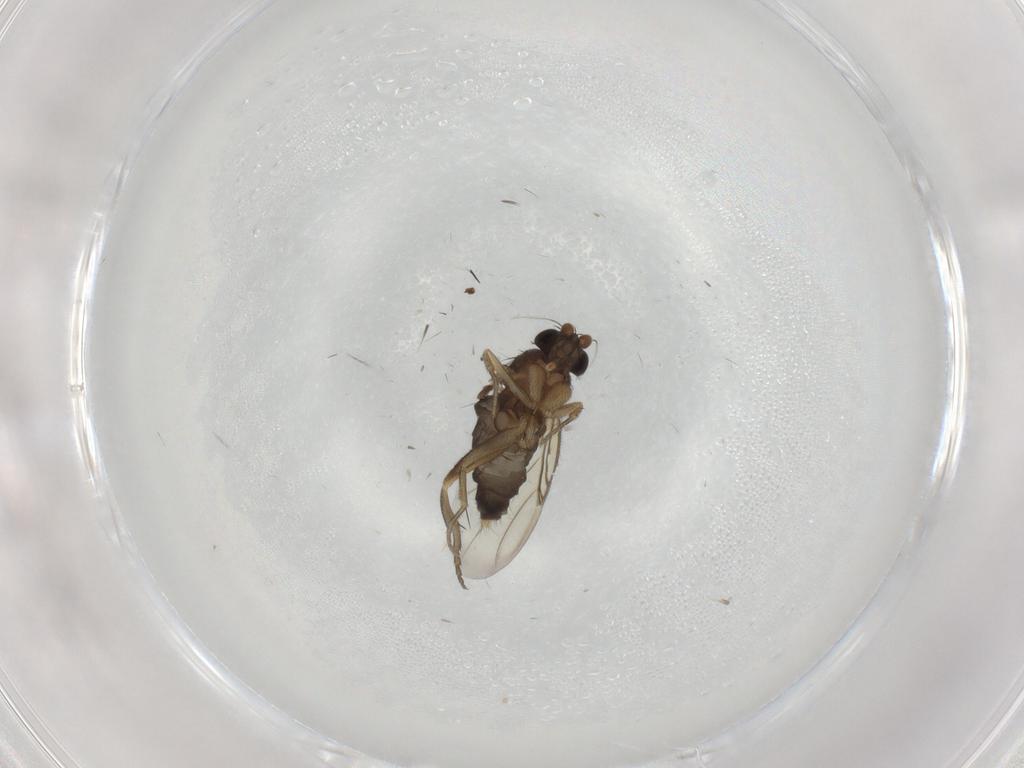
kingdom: Animalia
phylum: Arthropoda
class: Insecta
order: Diptera
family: Phoridae
